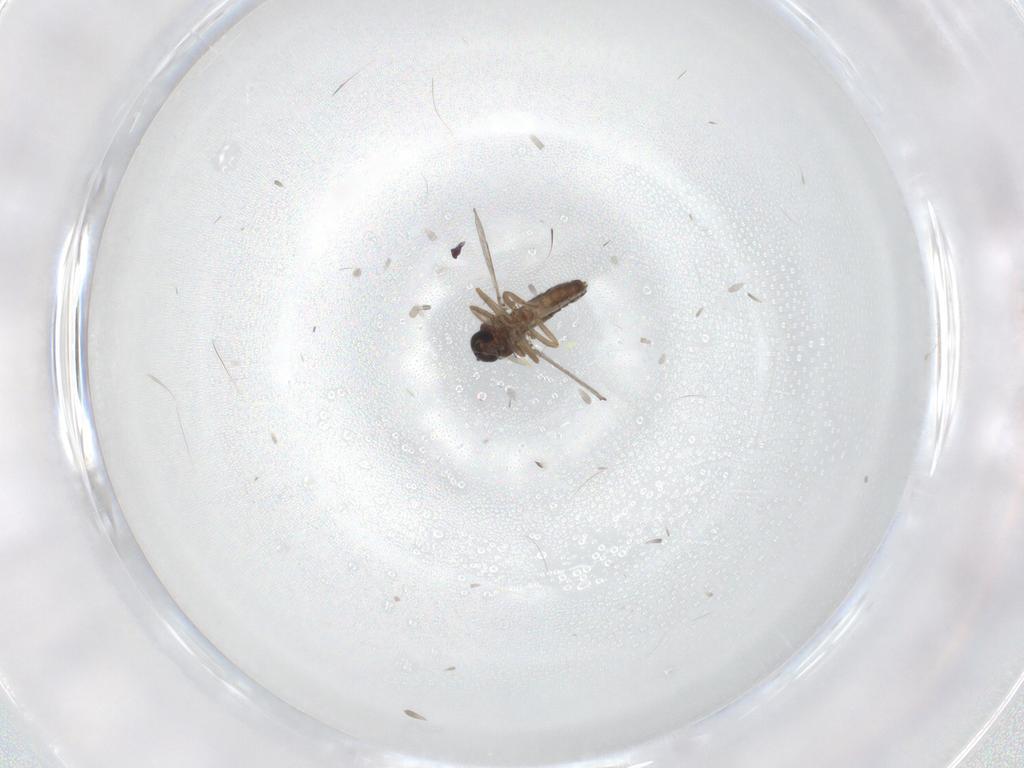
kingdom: Animalia
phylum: Arthropoda
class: Insecta
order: Diptera
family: Ceratopogonidae
